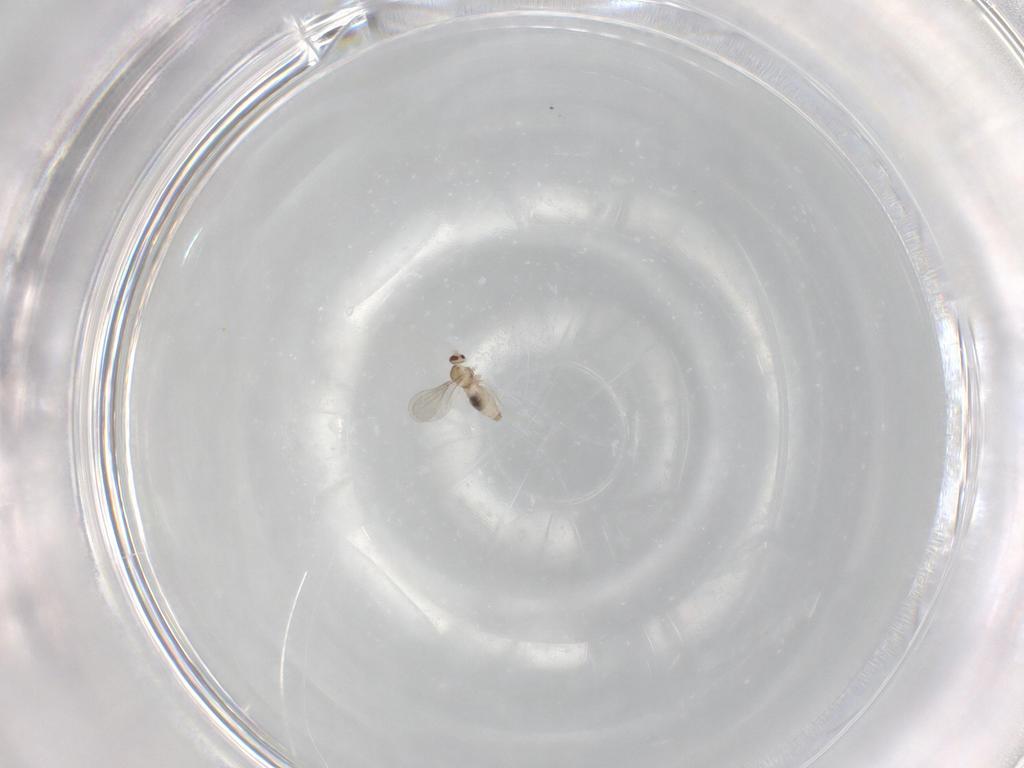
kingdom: Animalia
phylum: Arthropoda
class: Insecta
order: Diptera
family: Cecidomyiidae
